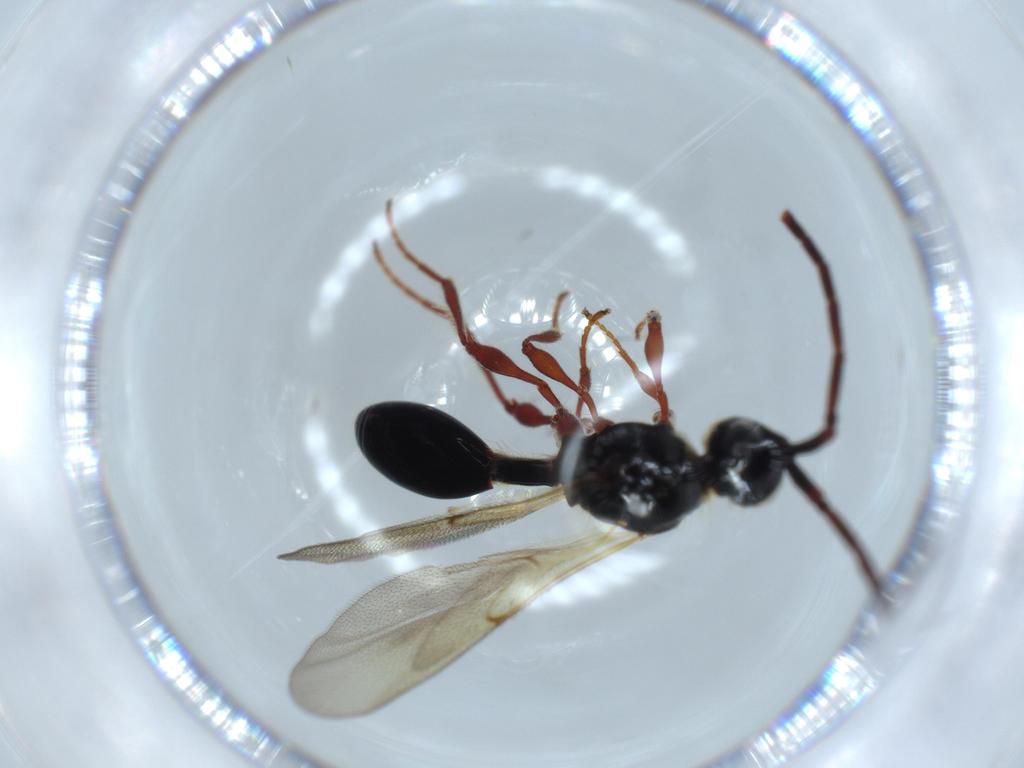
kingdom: Animalia
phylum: Arthropoda
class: Insecta
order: Hymenoptera
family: Diapriidae
